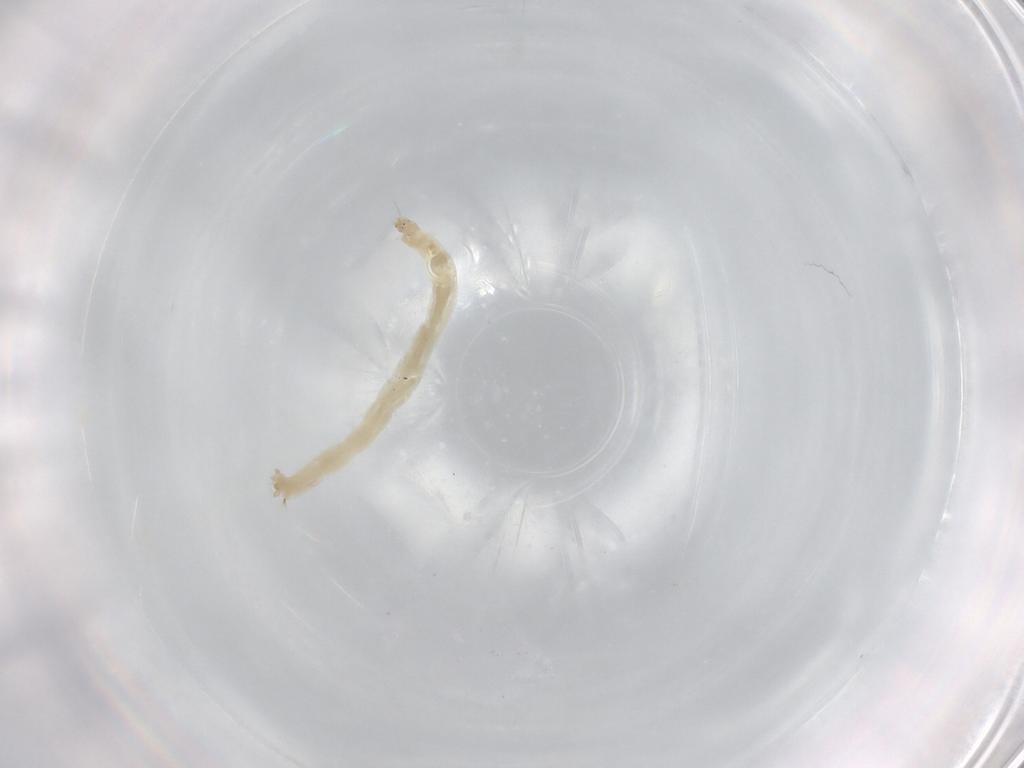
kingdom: Animalia
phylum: Arthropoda
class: Insecta
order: Diptera
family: Chironomidae
